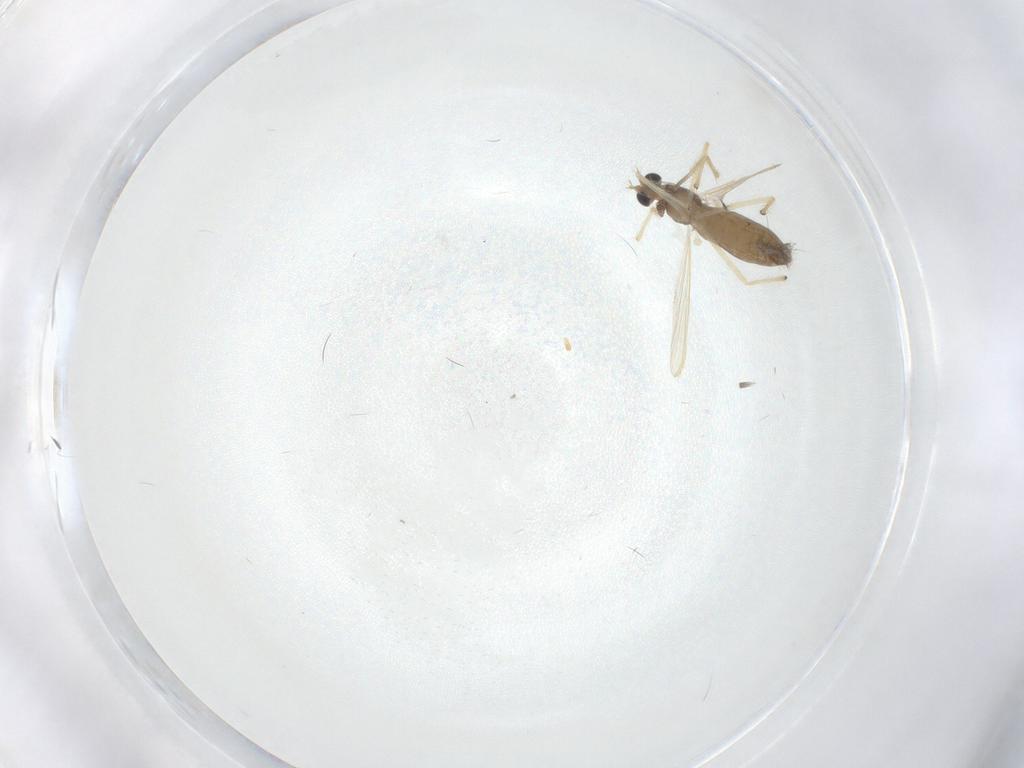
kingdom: Animalia
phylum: Arthropoda
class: Insecta
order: Diptera
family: Chironomidae
